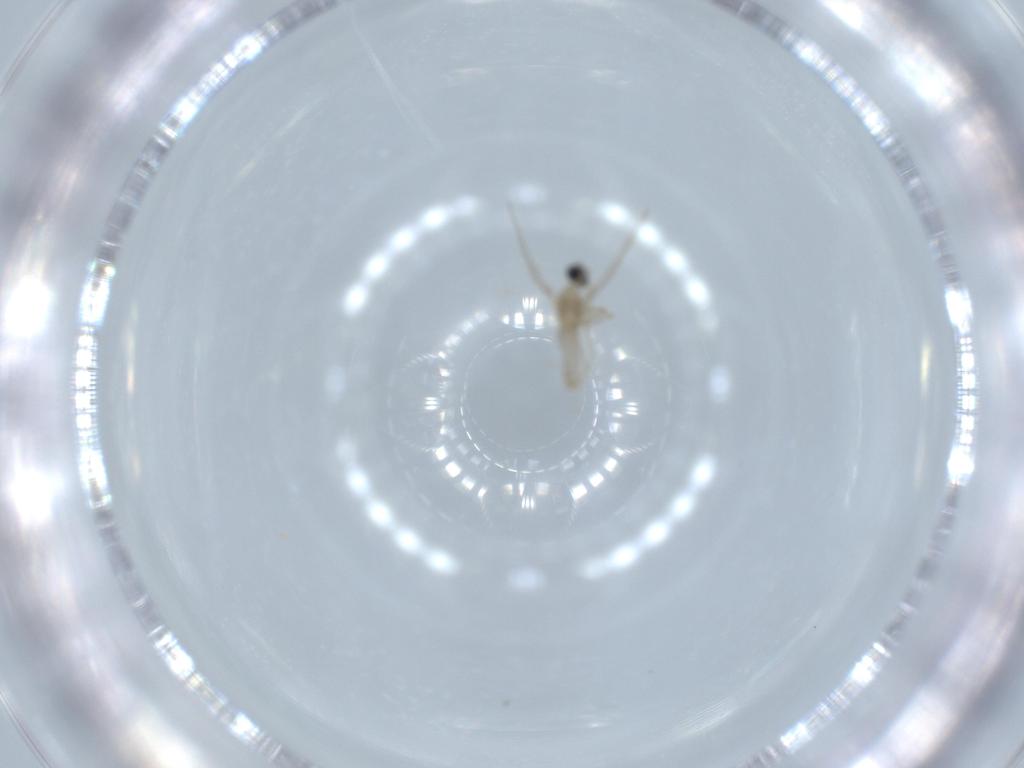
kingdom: Animalia
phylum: Arthropoda
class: Insecta
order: Diptera
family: Cecidomyiidae
